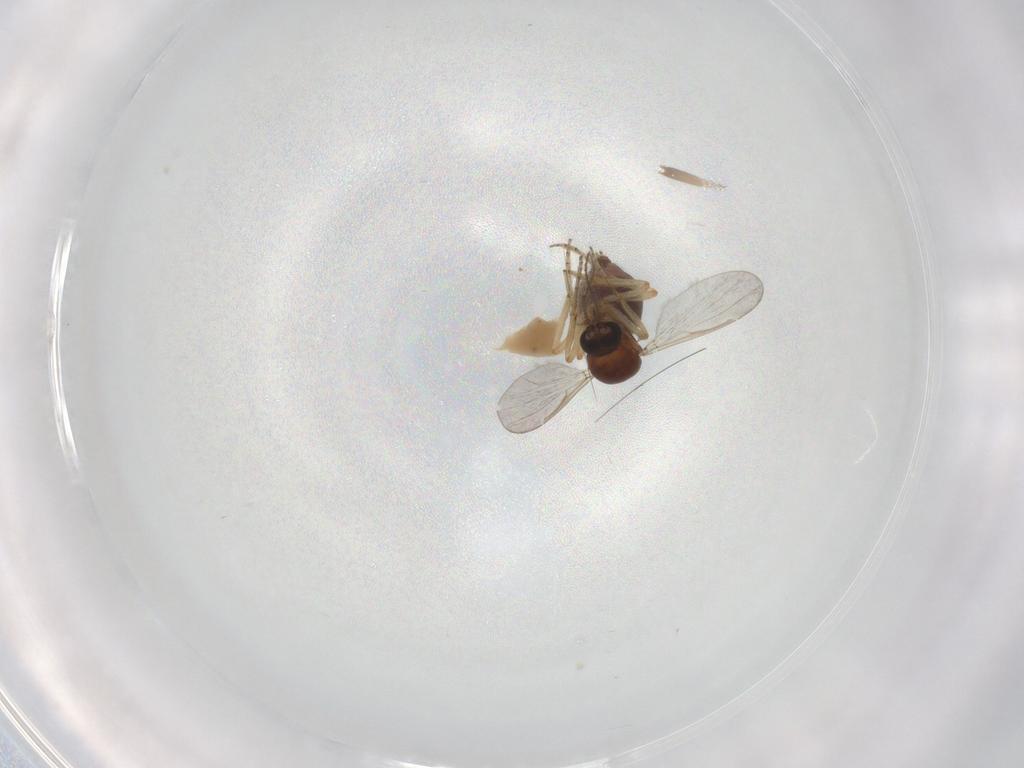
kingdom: Animalia
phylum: Arthropoda
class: Insecta
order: Diptera
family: Ceratopogonidae
